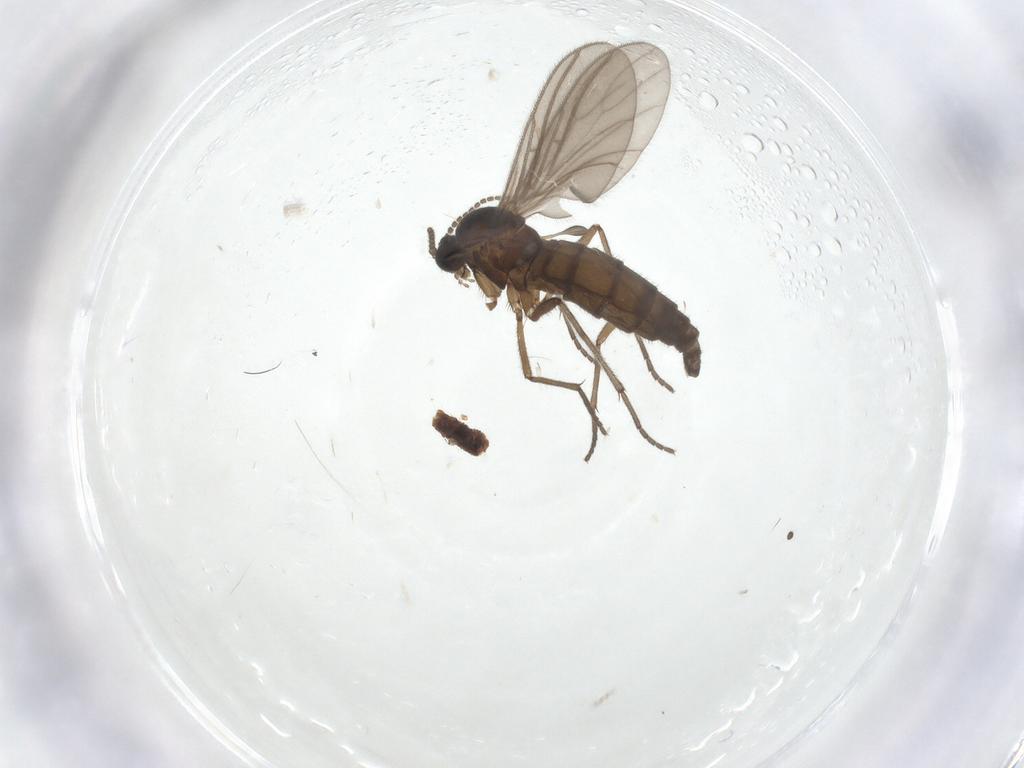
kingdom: Animalia
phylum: Arthropoda
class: Insecta
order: Diptera
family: Sciaridae
